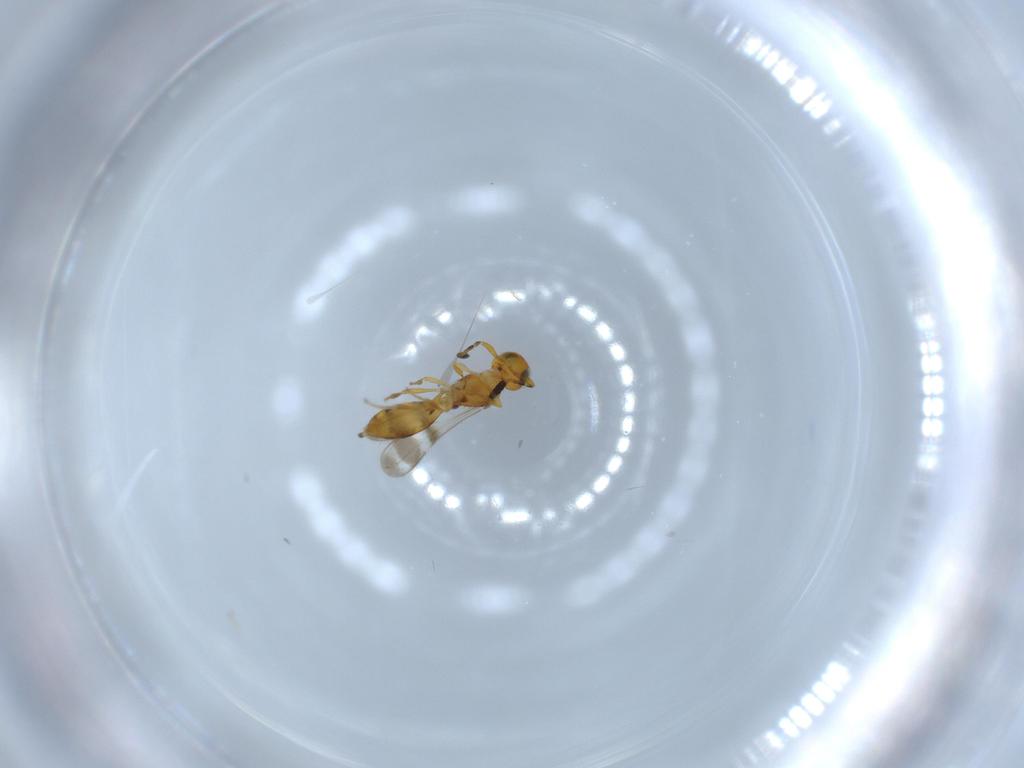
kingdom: Animalia
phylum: Arthropoda
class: Insecta
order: Hymenoptera
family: Scelionidae
